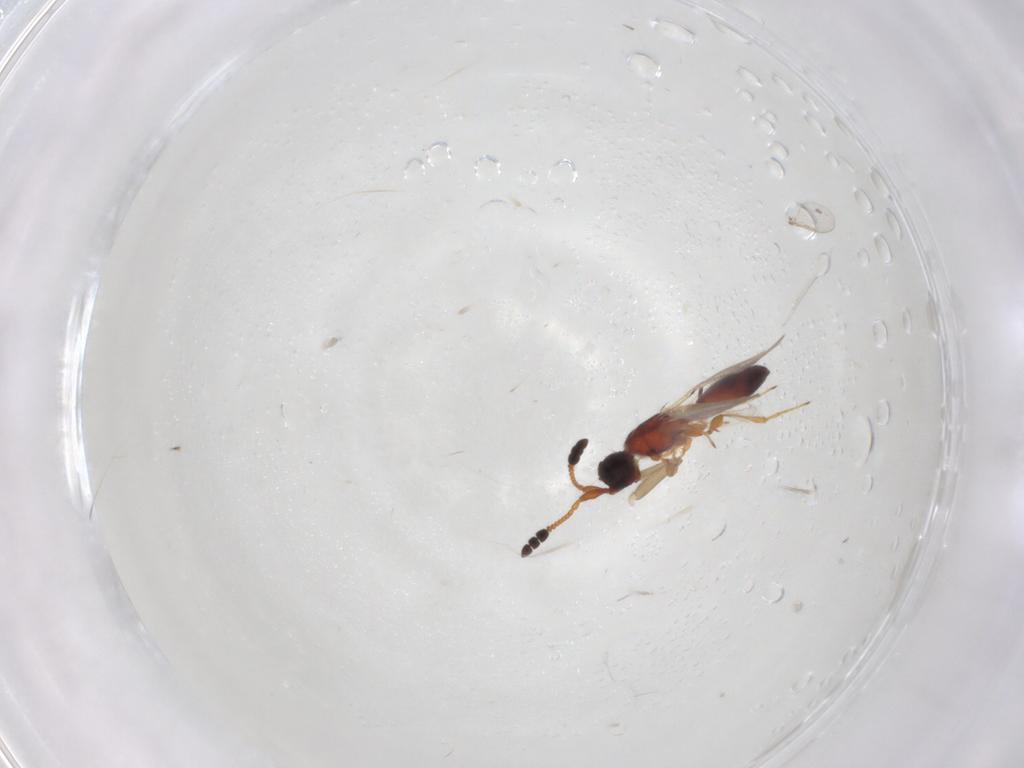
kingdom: Animalia
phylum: Arthropoda
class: Insecta
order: Hymenoptera
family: Diapriidae
